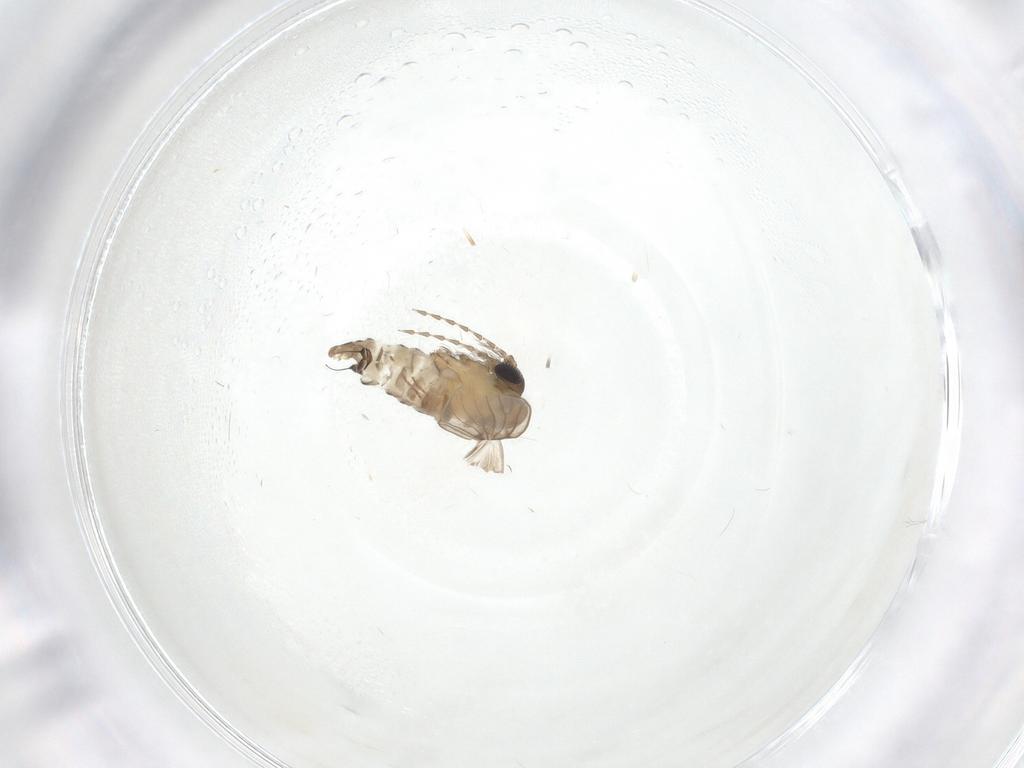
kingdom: Animalia
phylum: Arthropoda
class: Insecta
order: Diptera
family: Psychodidae
